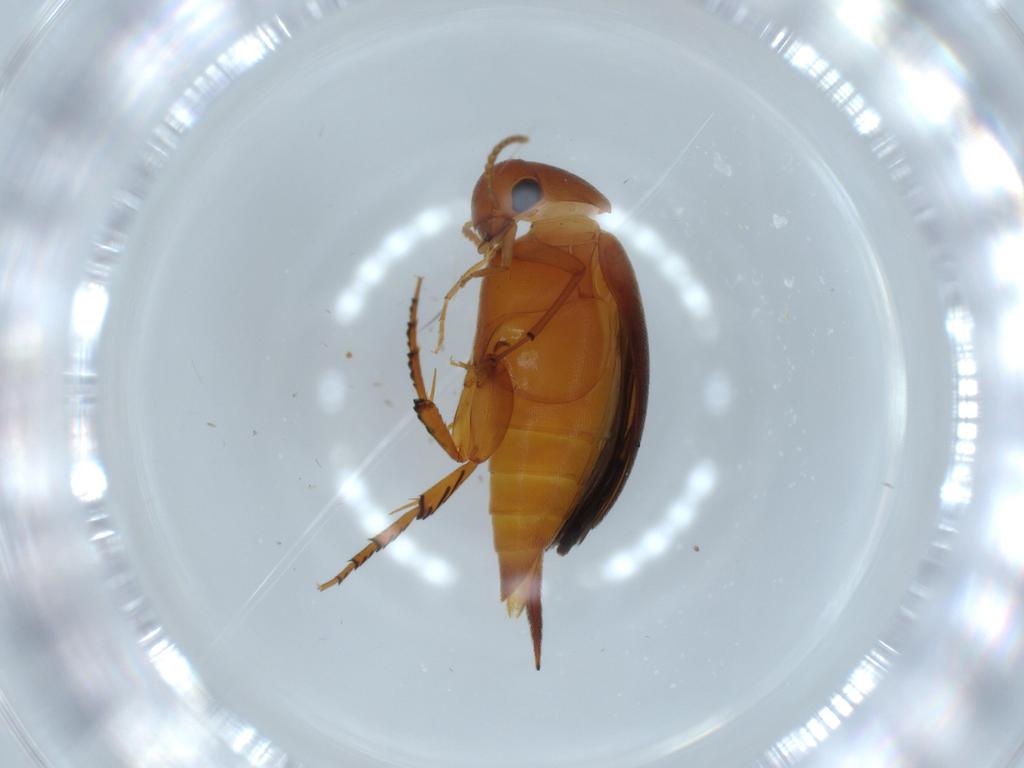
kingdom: Animalia
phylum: Arthropoda
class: Insecta
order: Coleoptera
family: Mordellidae
